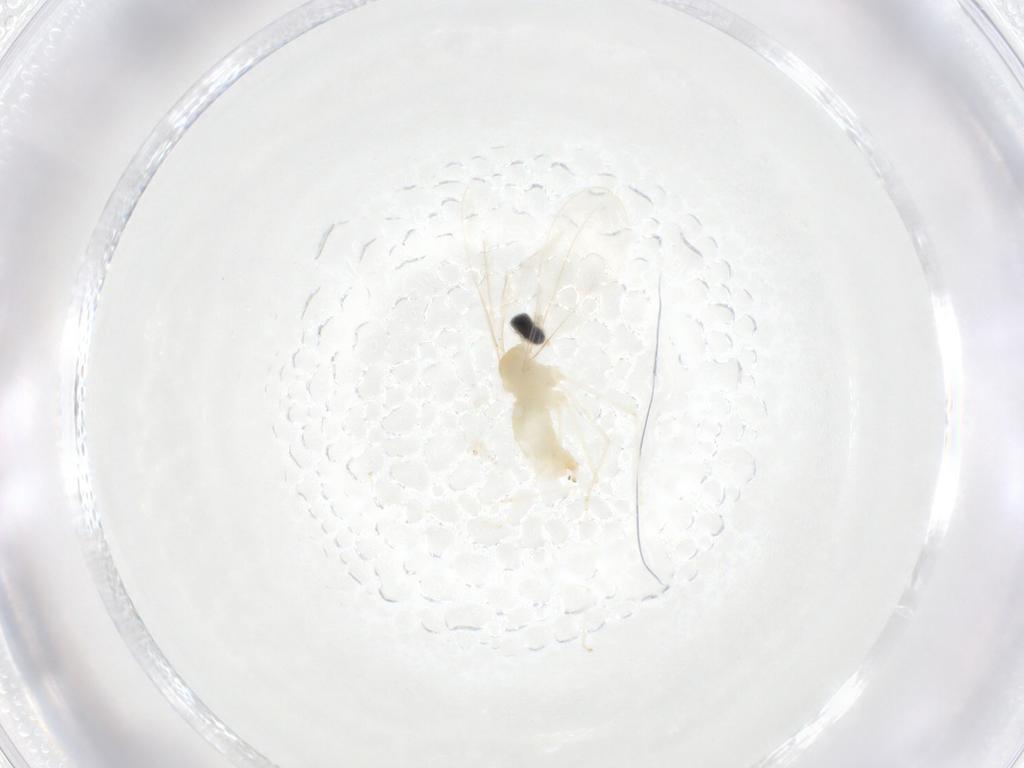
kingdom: Animalia
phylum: Arthropoda
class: Insecta
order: Diptera
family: Cecidomyiidae
